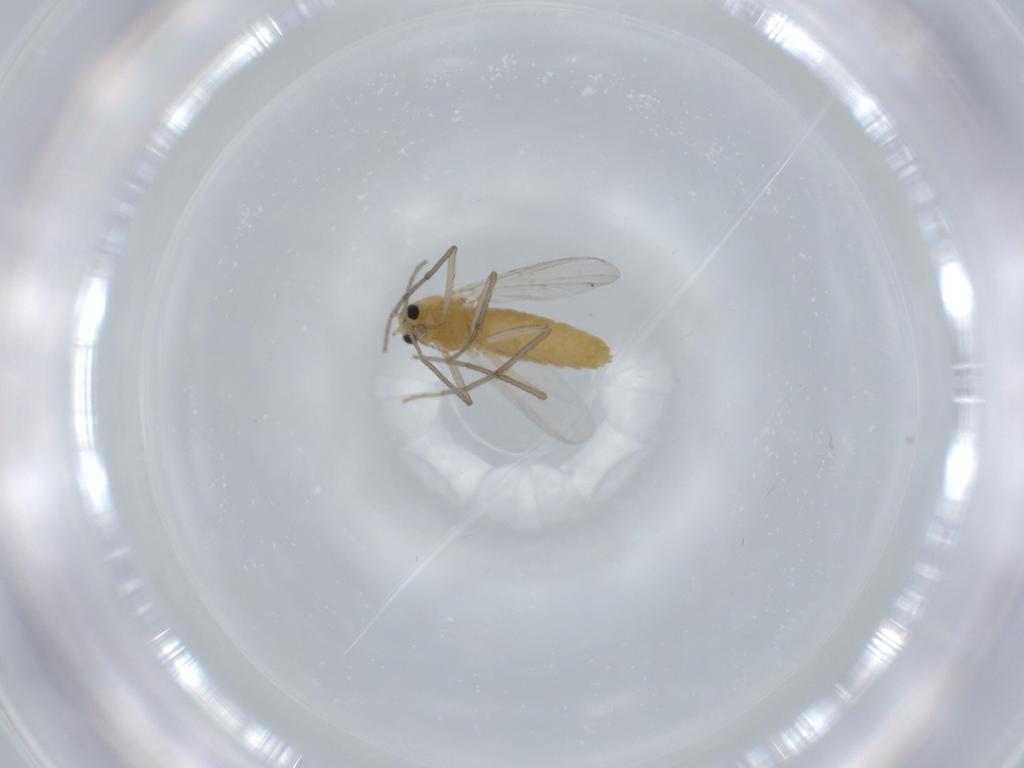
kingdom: Animalia
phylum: Arthropoda
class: Insecta
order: Diptera
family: Chironomidae
